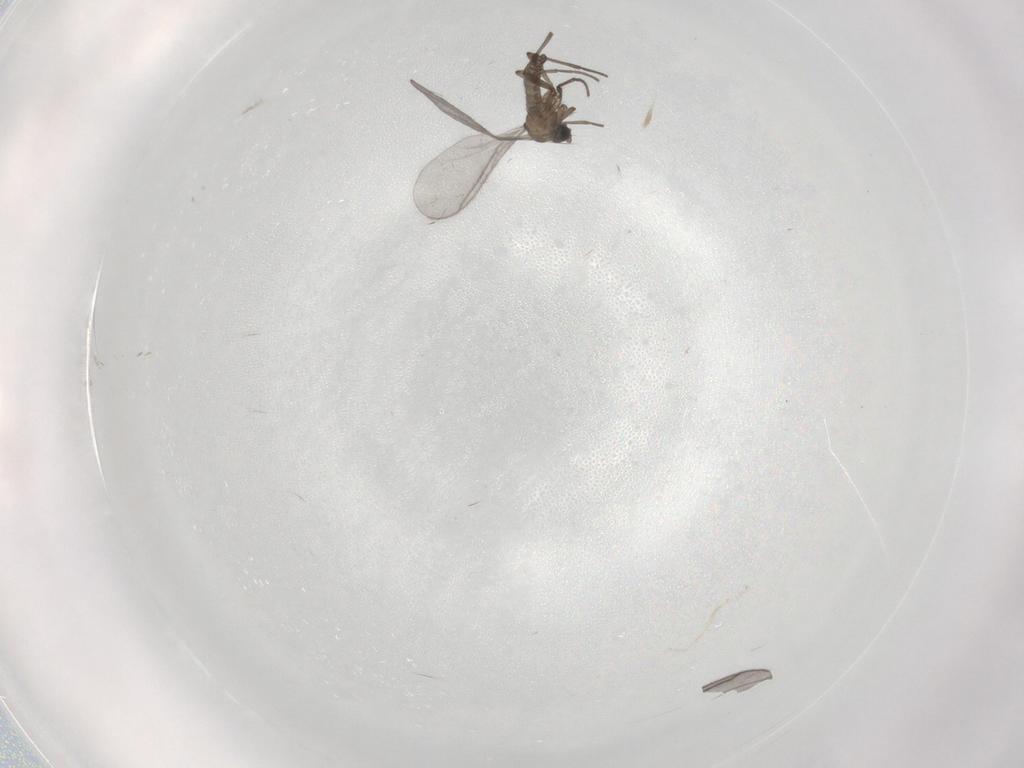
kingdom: Animalia
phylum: Arthropoda
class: Insecta
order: Diptera
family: Sciaridae
